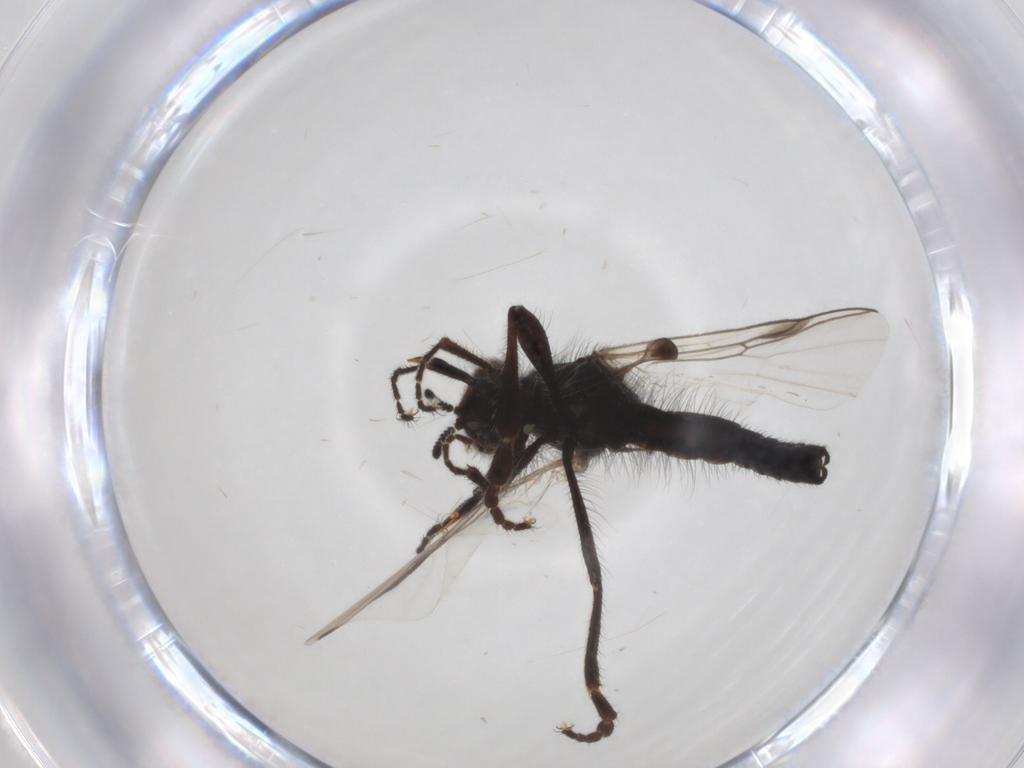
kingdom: Animalia
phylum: Arthropoda
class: Insecta
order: Diptera
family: Bibionidae
